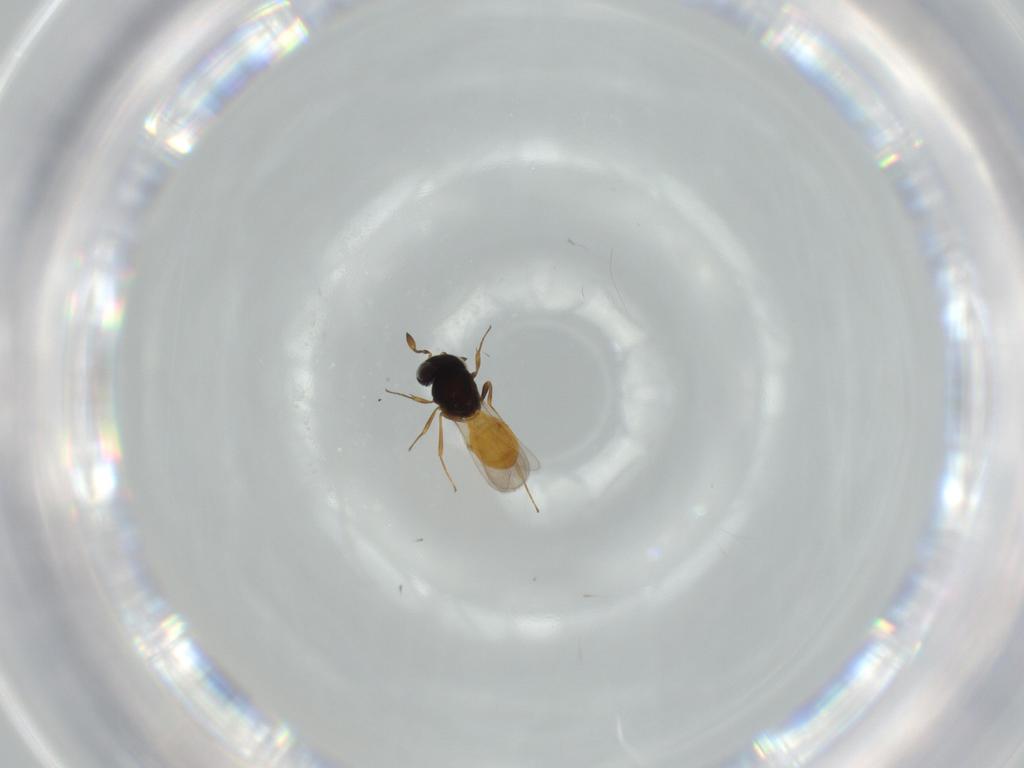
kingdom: Animalia
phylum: Arthropoda
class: Insecta
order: Hymenoptera
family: Scelionidae
